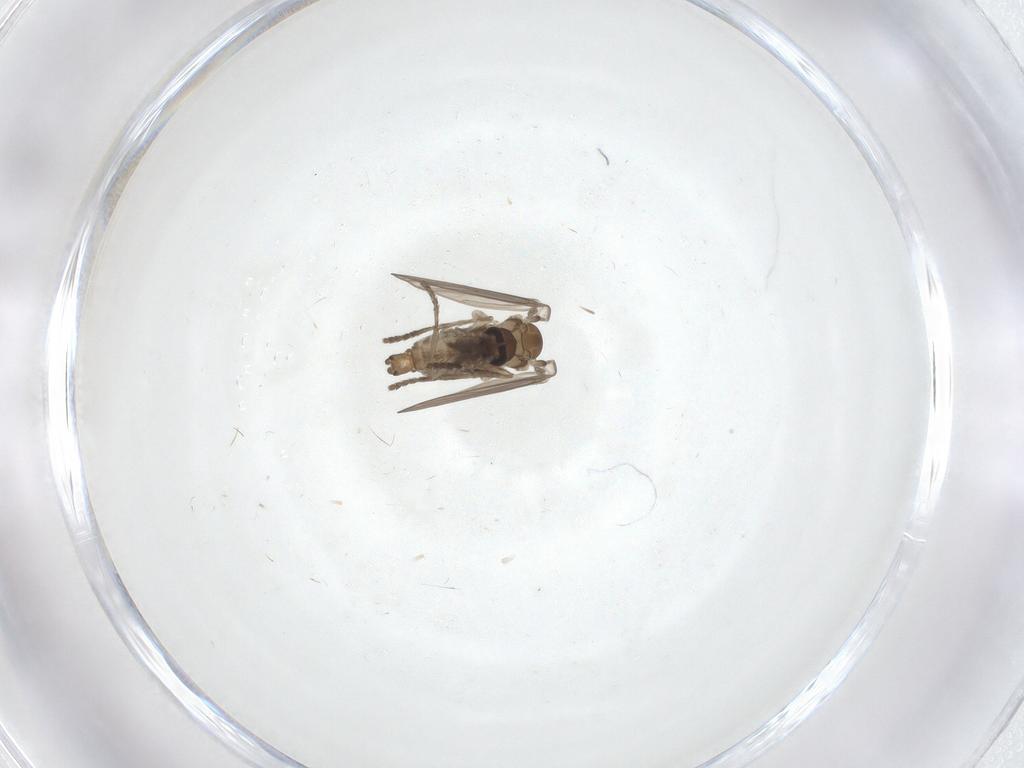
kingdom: Animalia
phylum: Arthropoda
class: Insecta
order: Diptera
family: Psychodidae
